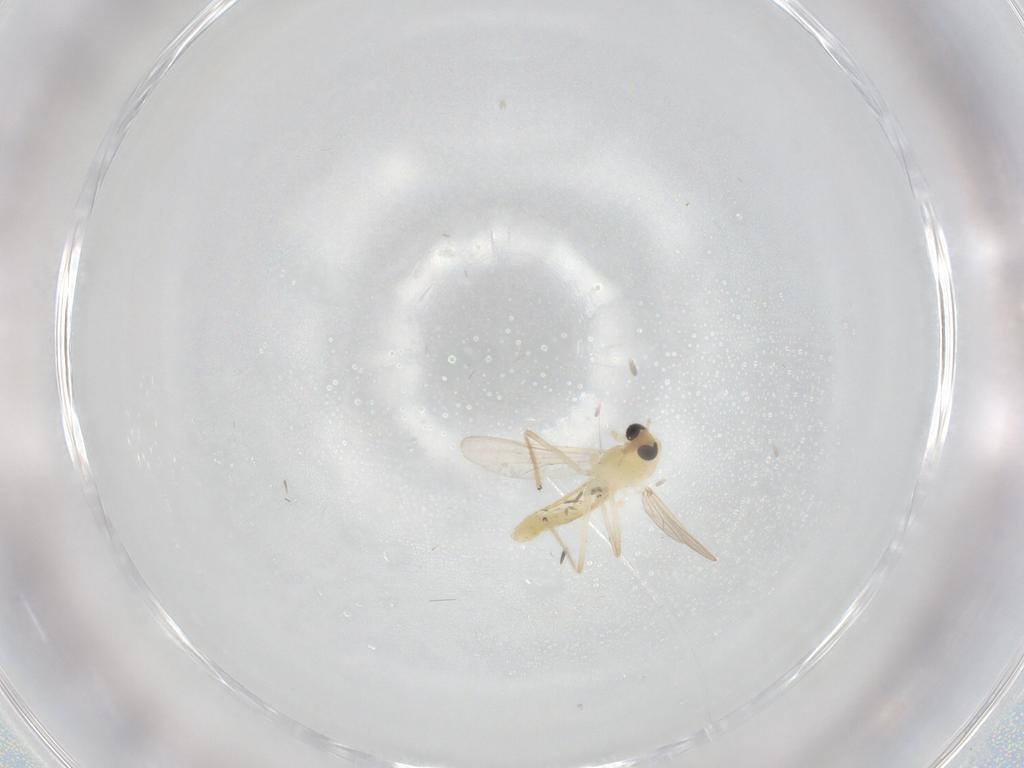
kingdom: Animalia
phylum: Arthropoda
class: Insecta
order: Diptera
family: Chironomidae
